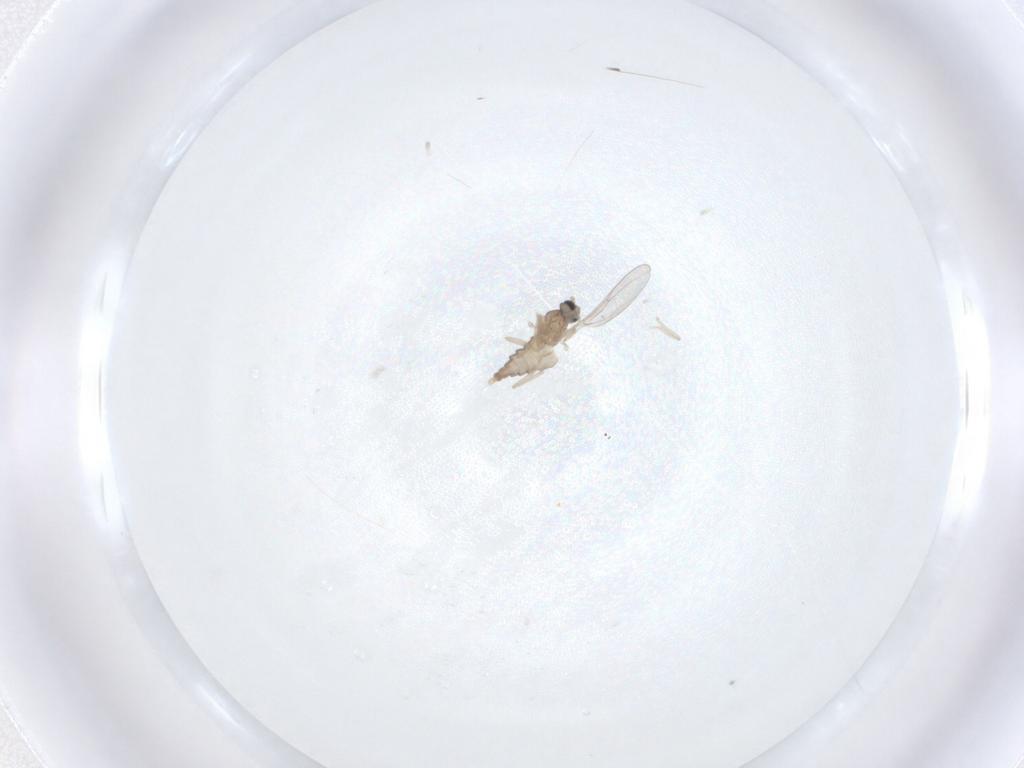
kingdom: Animalia
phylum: Arthropoda
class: Insecta
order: Diptera
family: Cecidomyiidae
